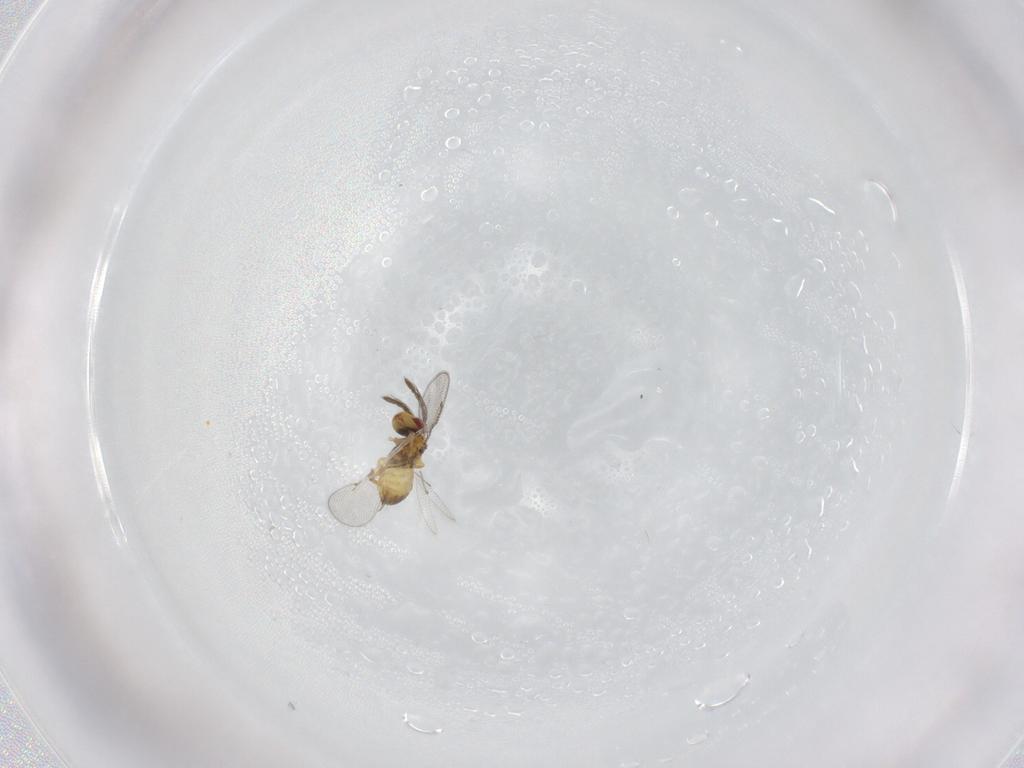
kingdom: Animalia
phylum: Arthropoda
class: Insecta
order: Hymenoptera
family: Eulophidae
